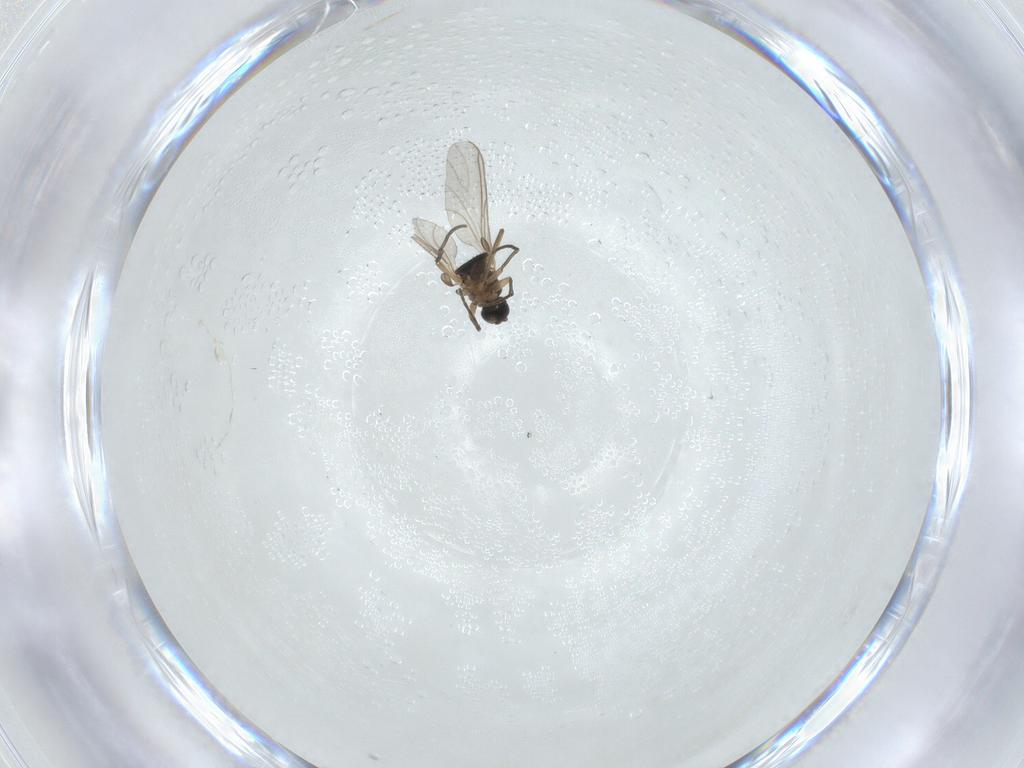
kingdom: Animalia
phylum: Arthropoda
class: Insecta
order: Diptera
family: Sciaridae
